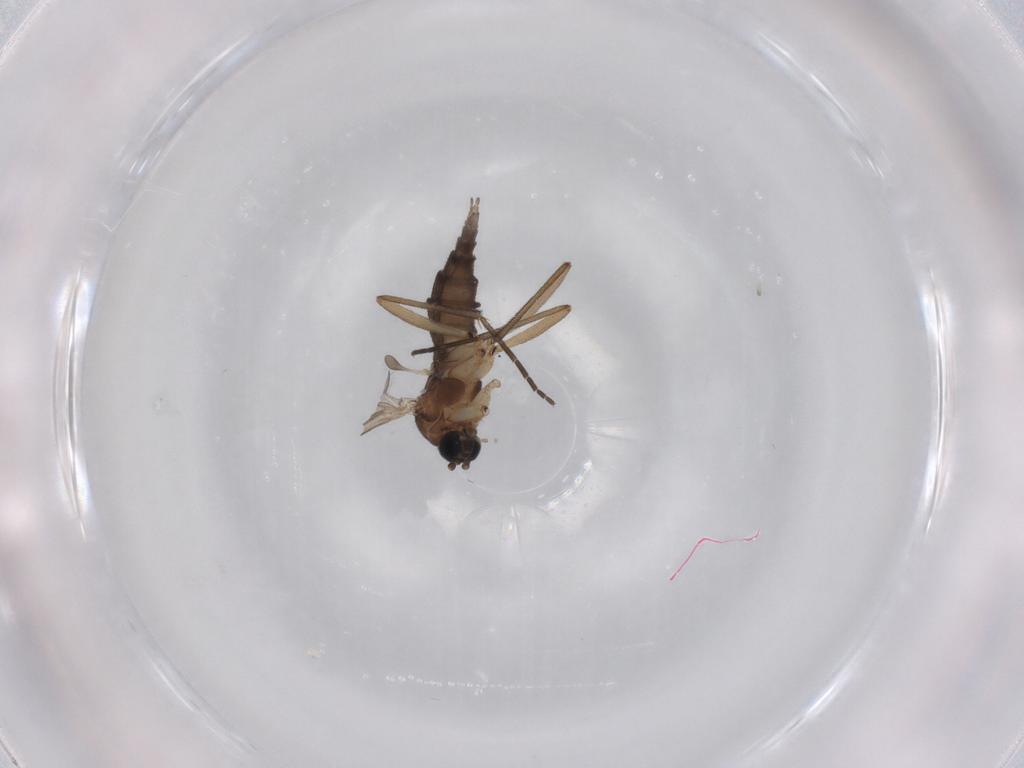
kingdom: Animalia
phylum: Arthropoda
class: Insecta
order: Diptera
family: Sciaridae
